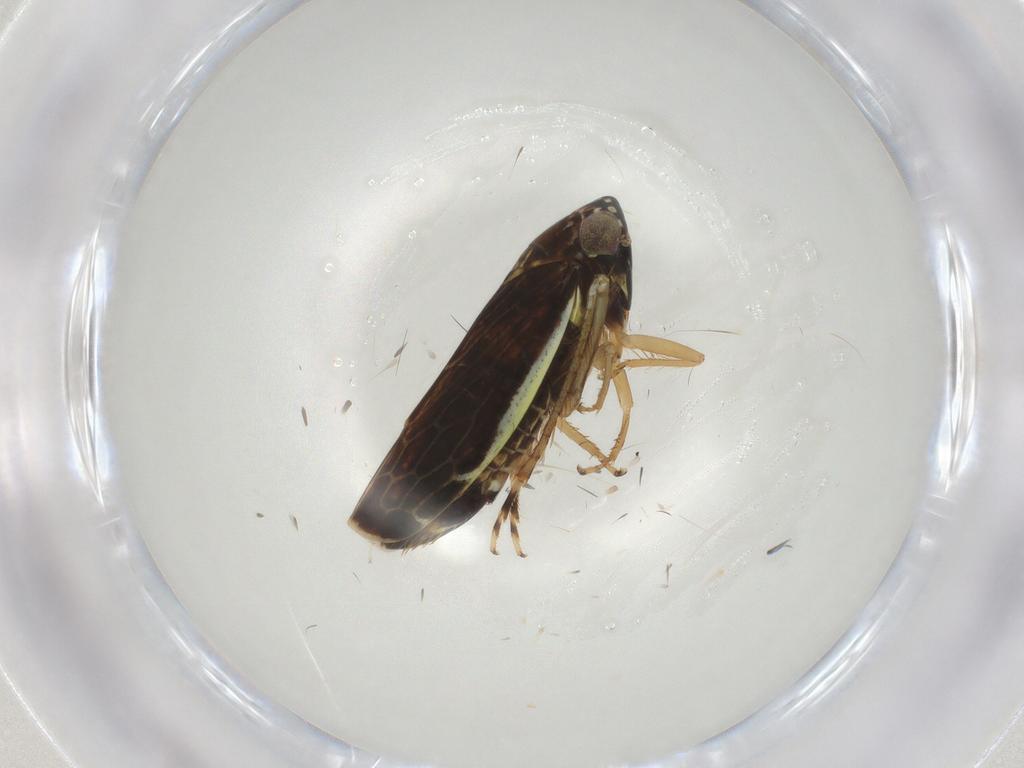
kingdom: Animalia
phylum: Arthropoda
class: Insecta
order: Hemiptera
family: Cicadellidae
